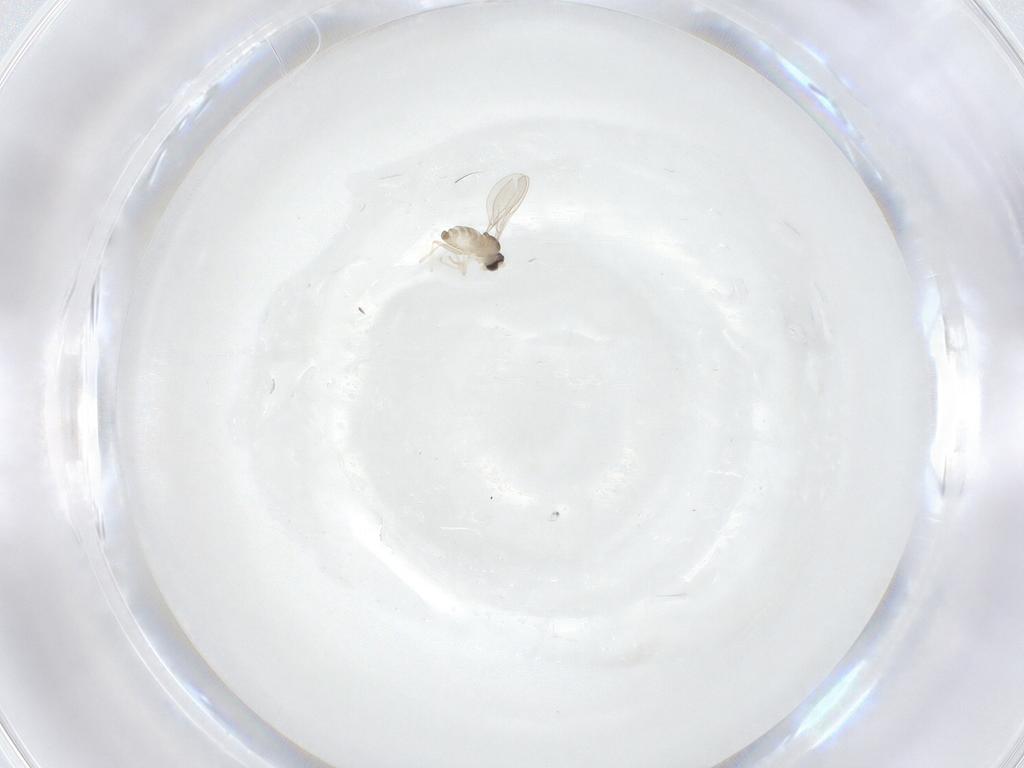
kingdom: Animalia
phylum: Arthropoda
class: Insecta
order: Diptera
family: Cecidomyiidae
